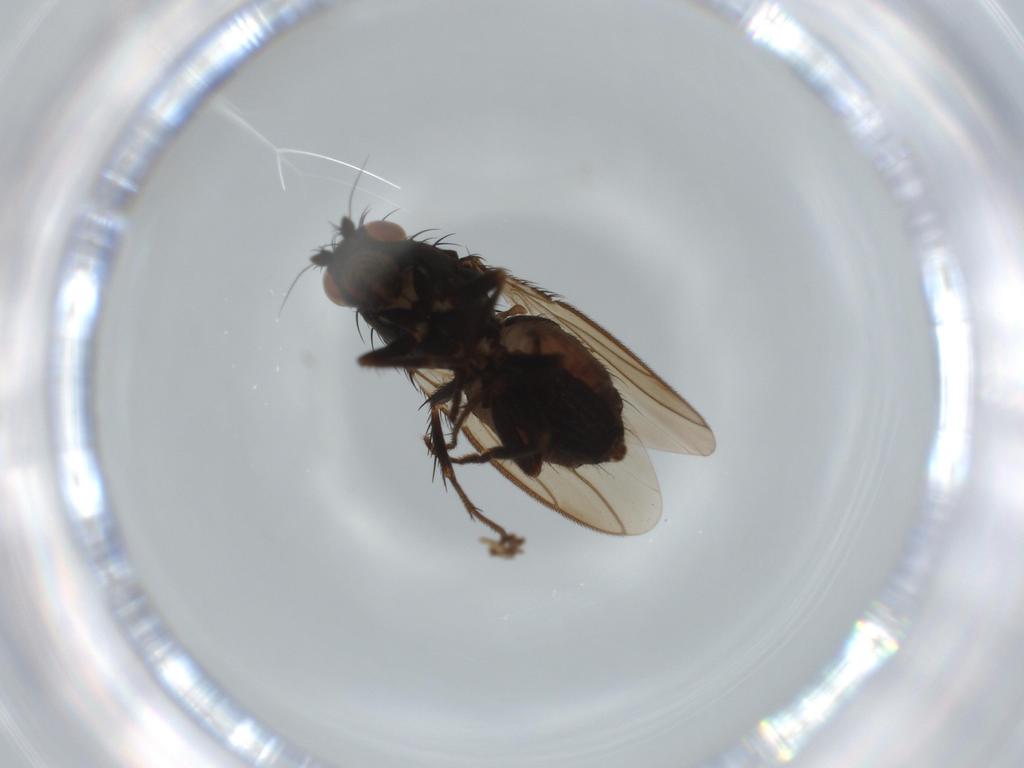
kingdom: Animalia
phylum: Arthropoda
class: Insecta
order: Diptera
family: Sphaeroceridae
